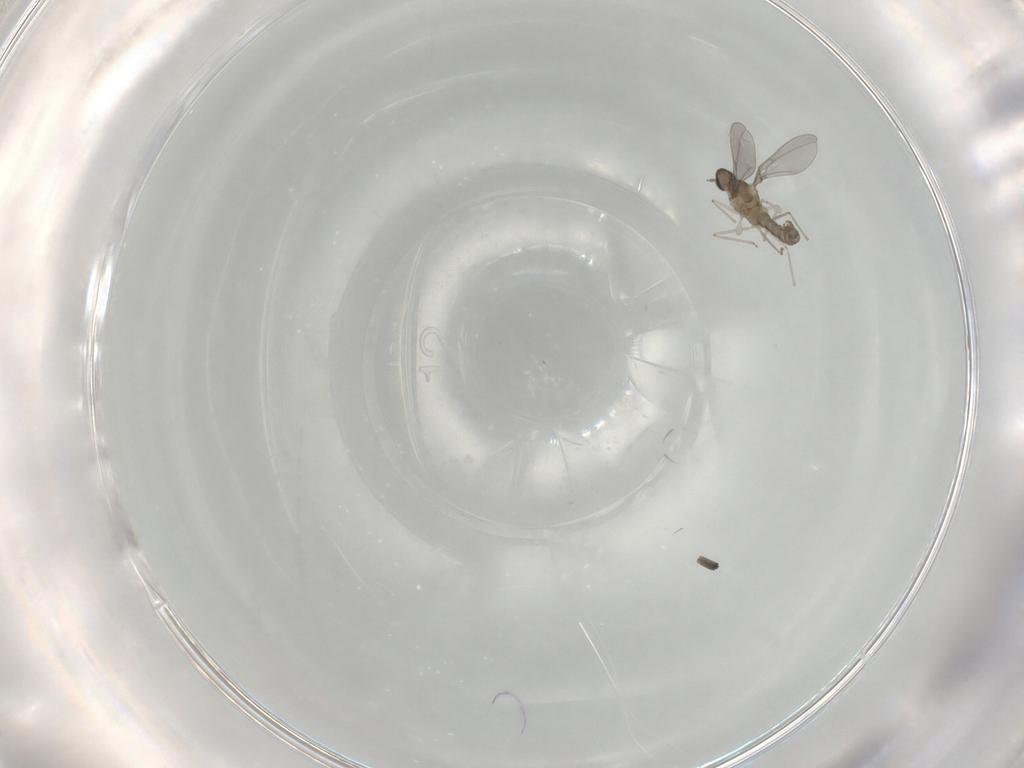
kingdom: Animalia
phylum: Arthropoda
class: Insecta
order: Diptera
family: Cecidomyiidae
